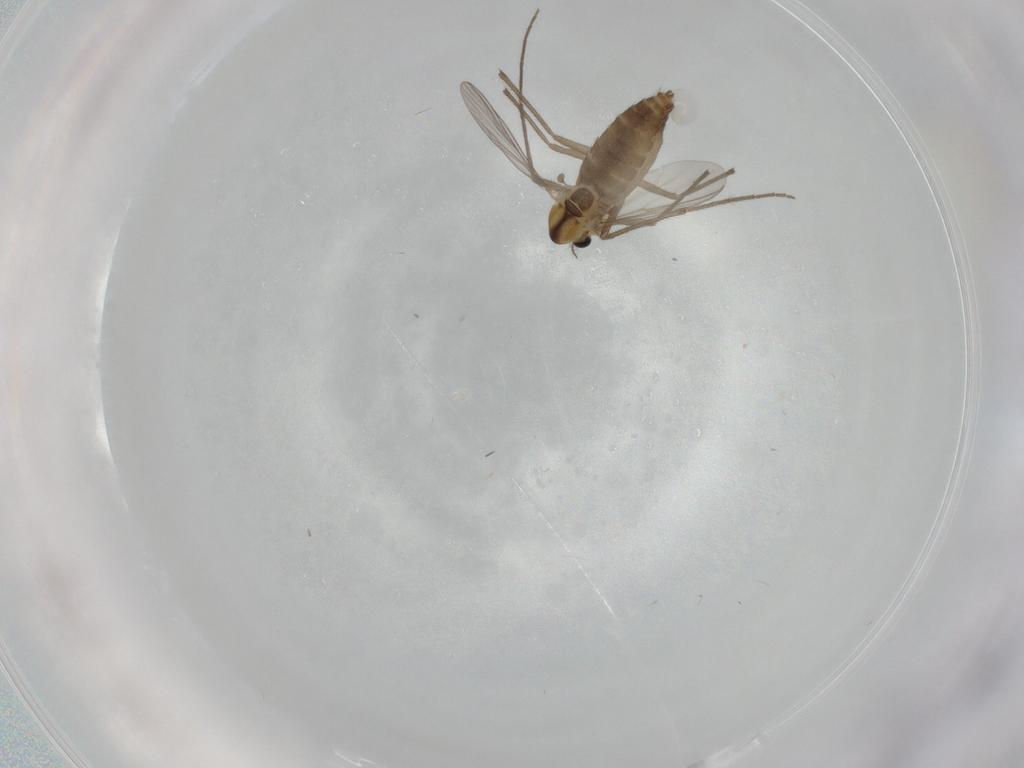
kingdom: Animalia
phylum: Arthropoda
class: Insecta
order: Diptera
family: Chironomidae
